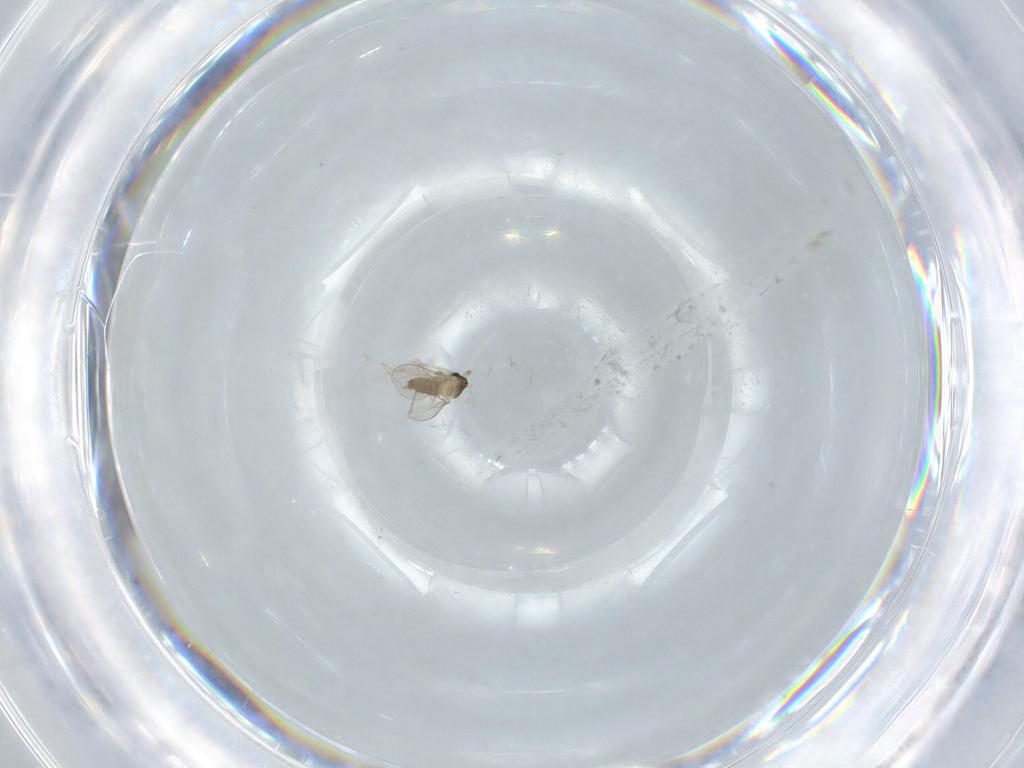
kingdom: Animalia
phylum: Arthropoda
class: Insecta
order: Diptera
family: Cecidomyiidae
